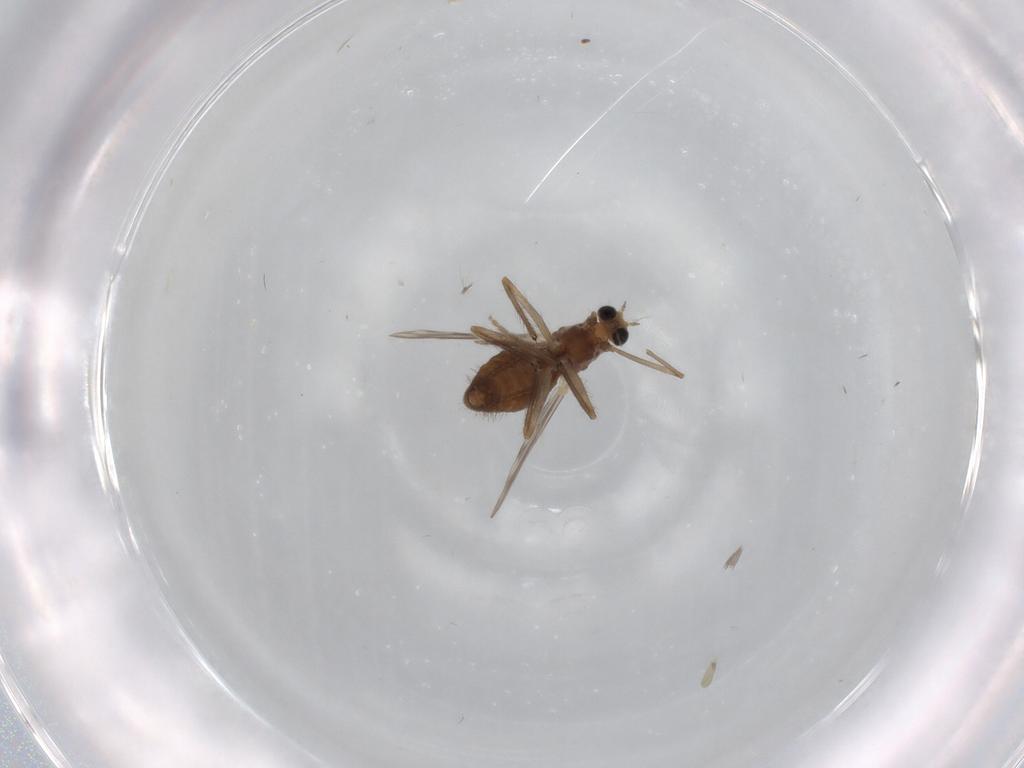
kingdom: Animalia
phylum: Arthropoda
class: Insecta
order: Diptera
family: Chironomidae
